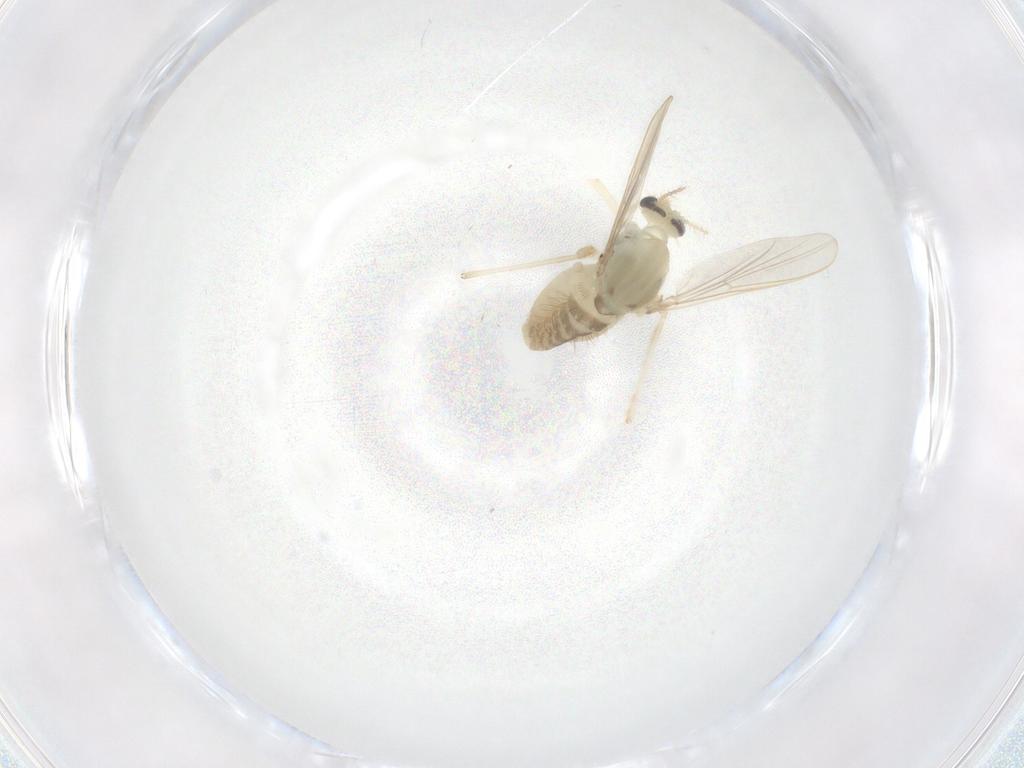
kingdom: Animalia
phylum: Arthropoda
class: Insecta
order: Diptera
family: Chironomidae
